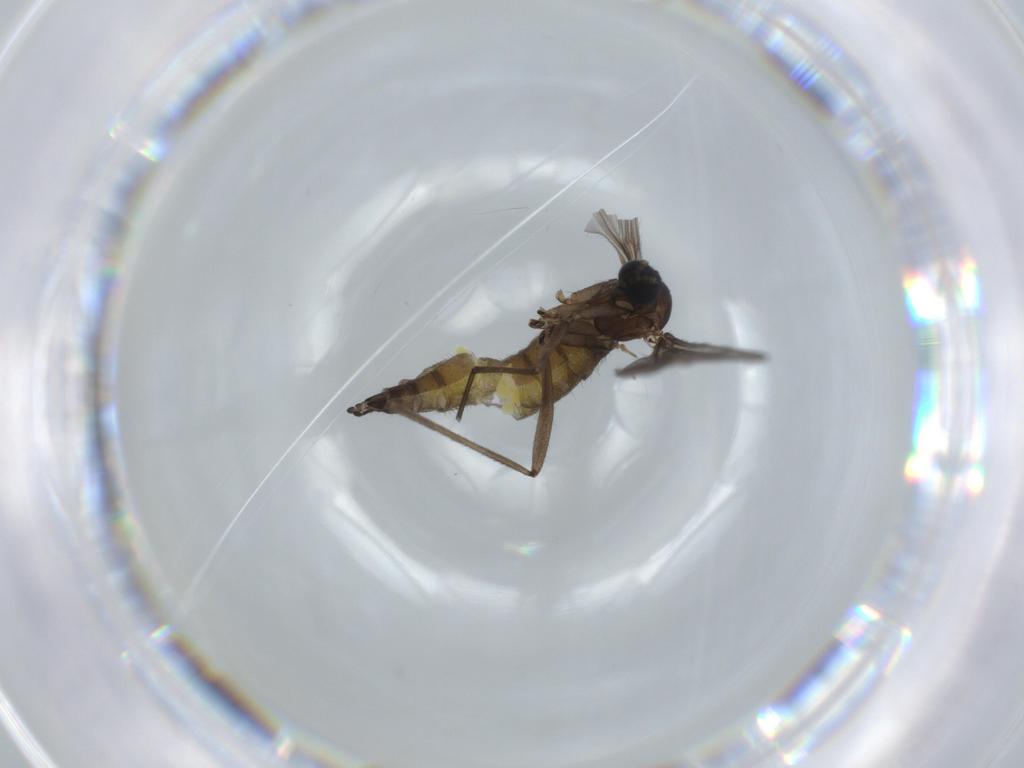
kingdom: Animalia
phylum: Arthropoda
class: Insecta
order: Diptera
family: Sciaridae
